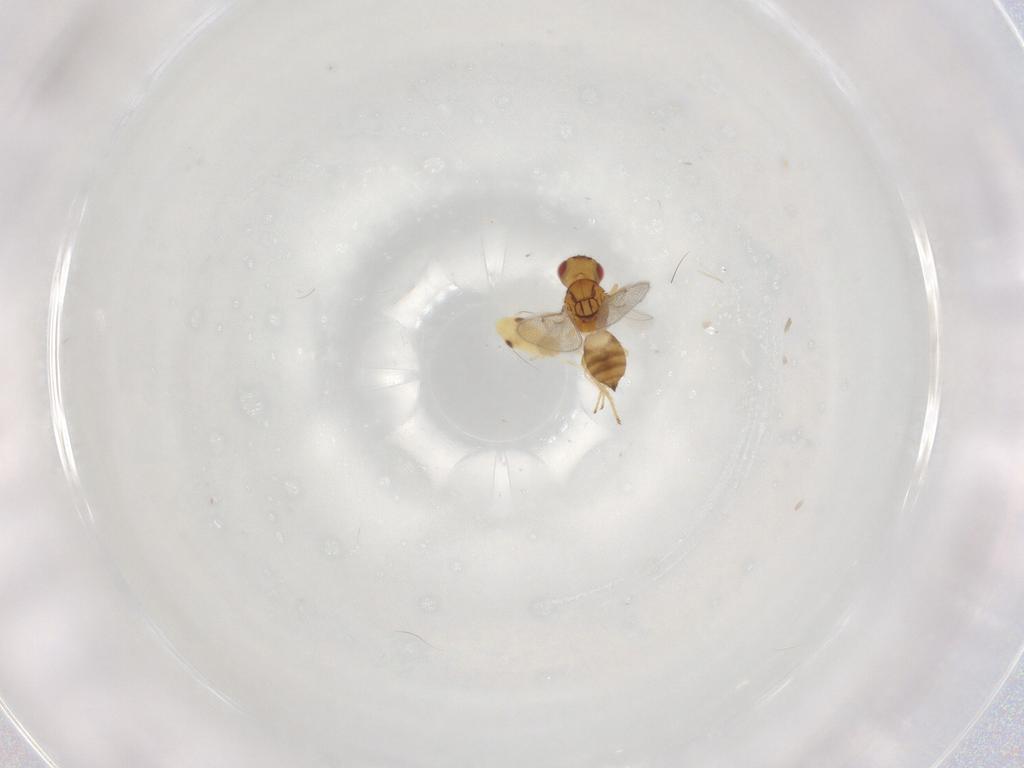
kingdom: Animalia
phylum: Arthropoda
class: Insecta
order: Hymenoptera
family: Eulophidae
